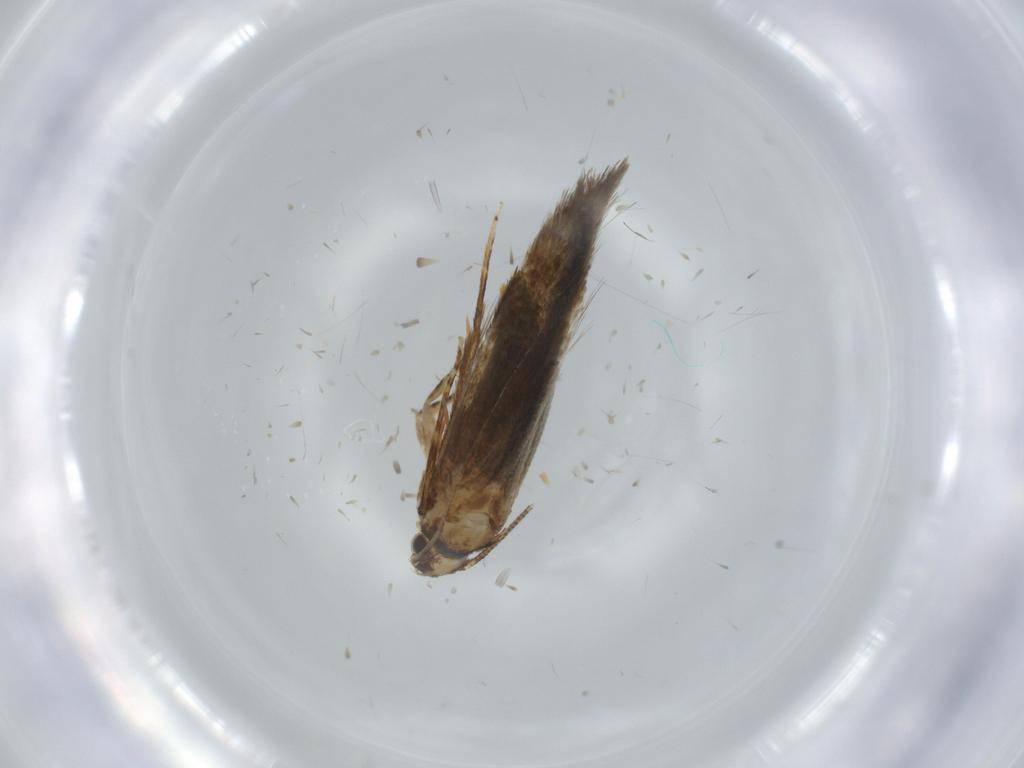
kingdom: Animalia
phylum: Arthropoda
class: Insecta
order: Lepidoptera
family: Tineidae
